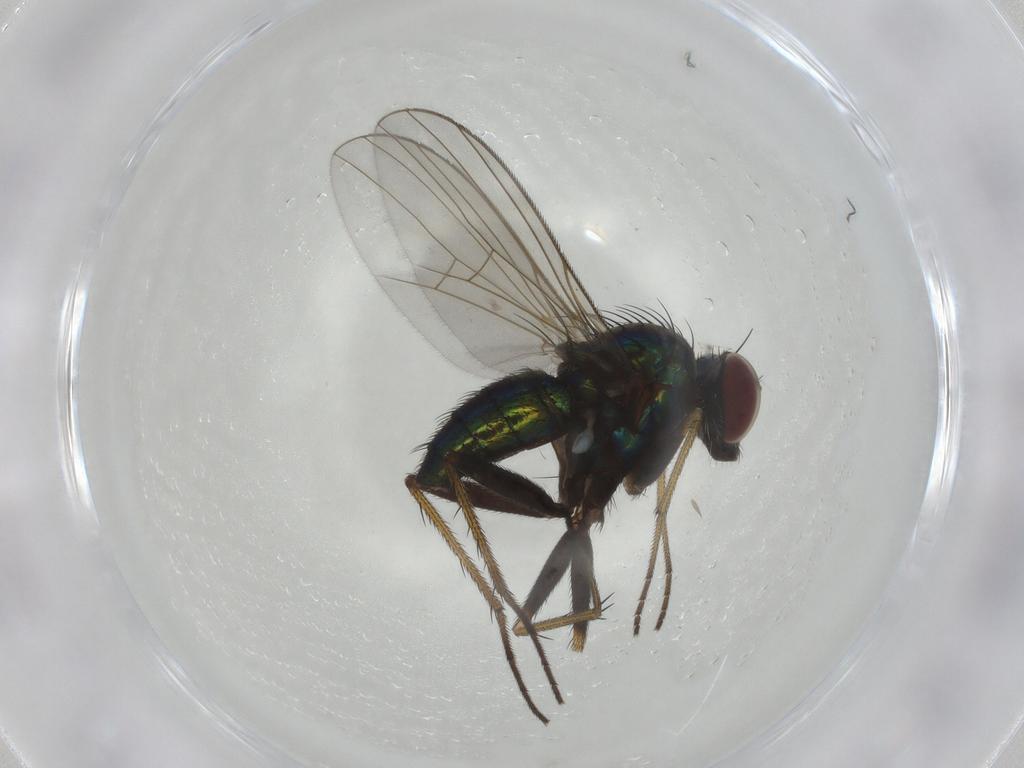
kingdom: Animalia
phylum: Arthropoda
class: Insecta
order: Diptera
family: Dolichopodidae
